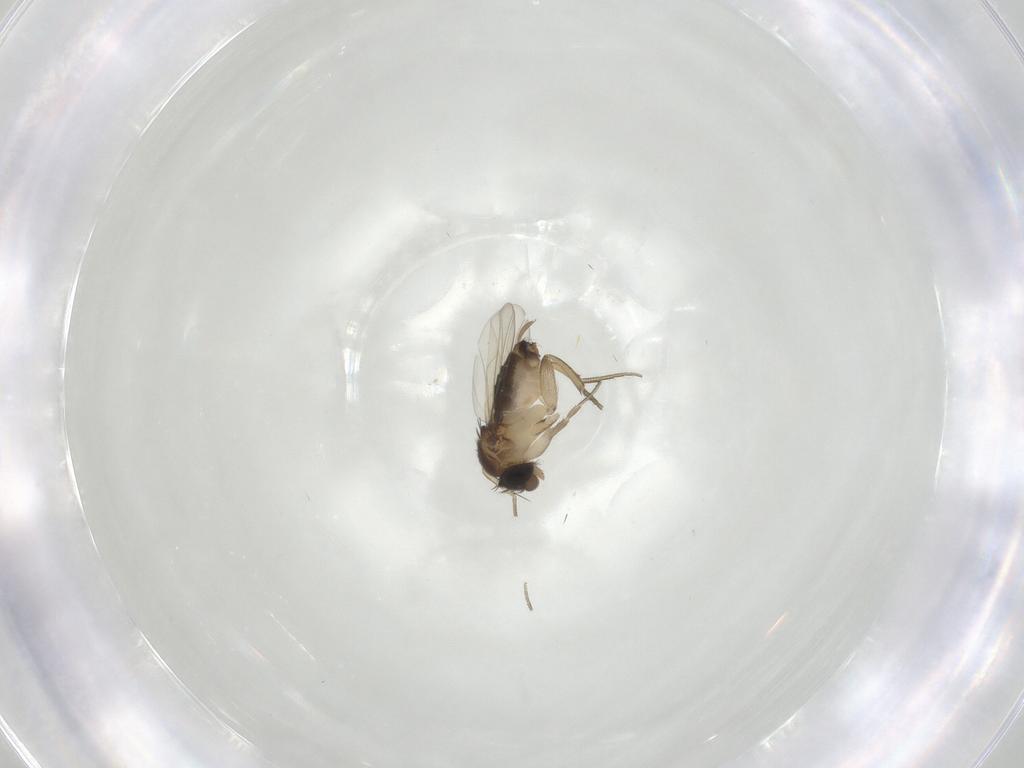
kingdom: Animalia
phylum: Arthropoda
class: Insecta
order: Diptera
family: Cecidomyiidae
